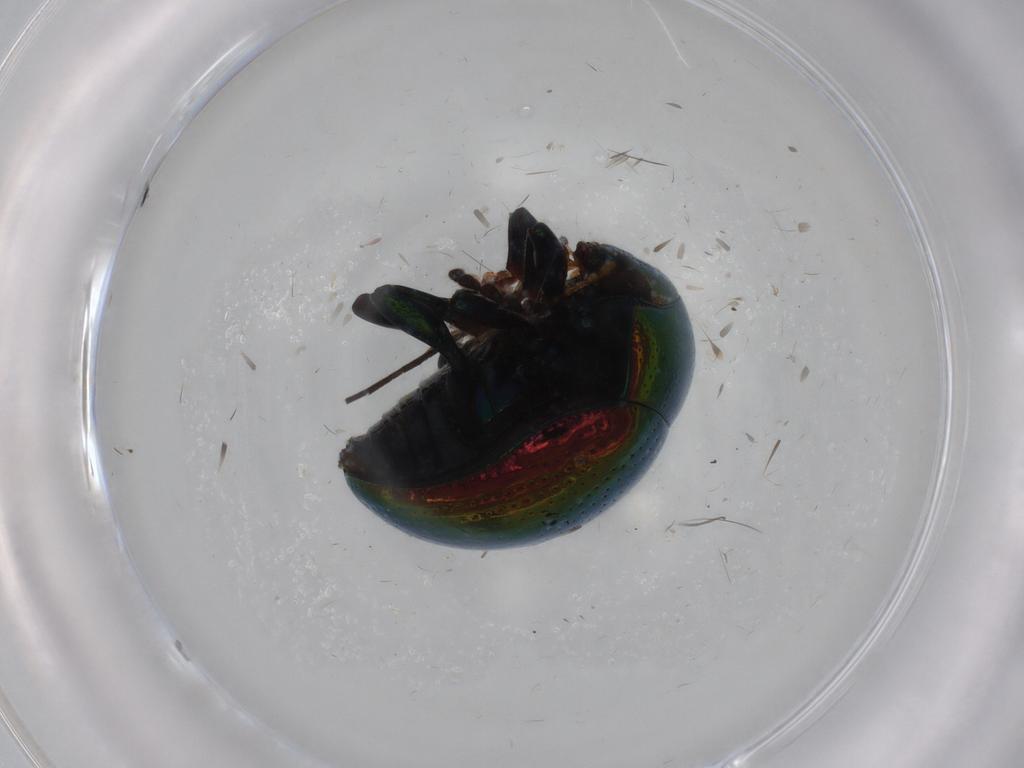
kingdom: Animalia
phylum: Arthropoda
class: Insecta
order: Coleoptera
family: Chrysomelidae
